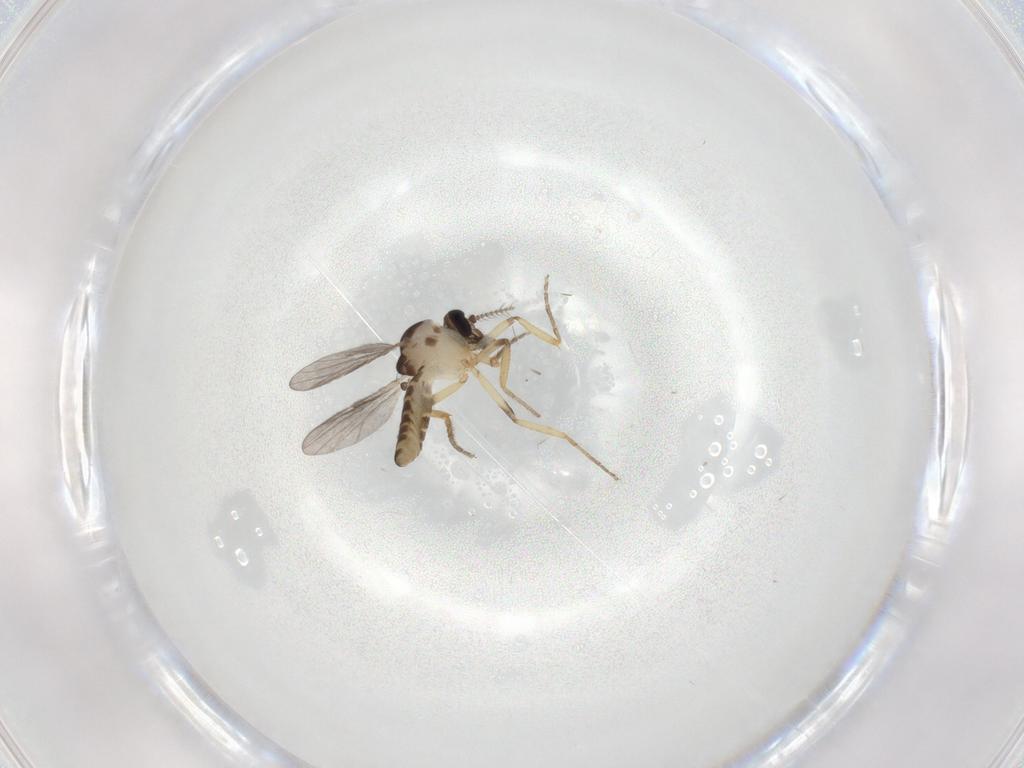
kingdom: Animalia
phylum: Arthropoda
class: Insecta
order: Diptera
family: Ceratopogonidae
